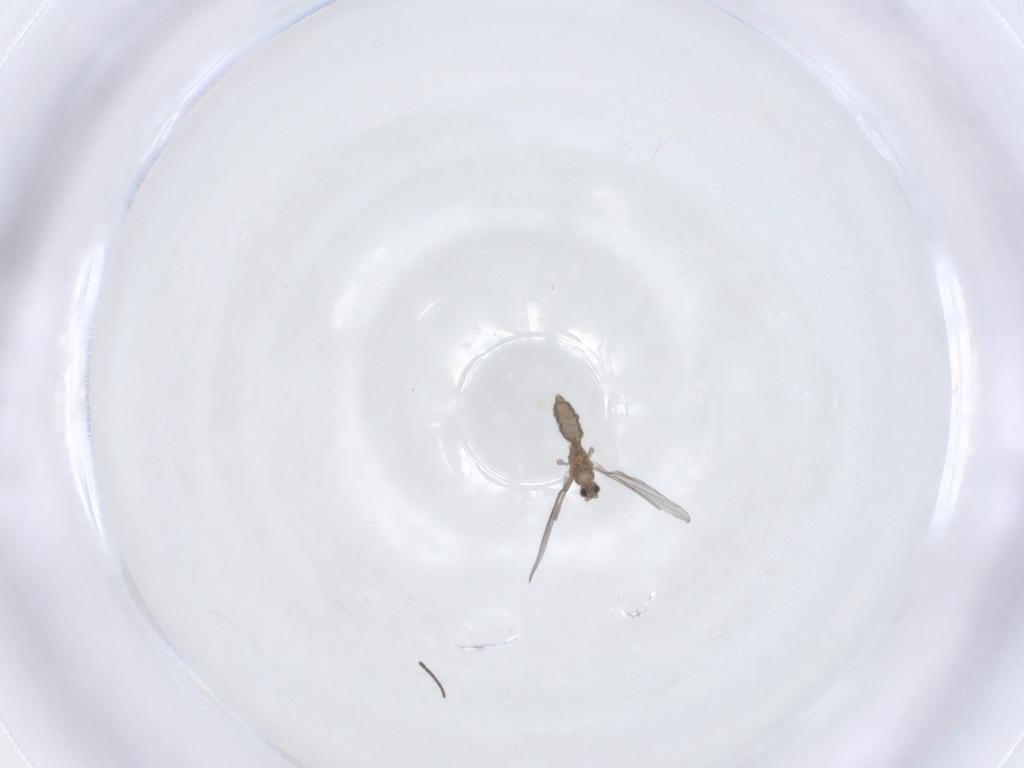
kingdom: Animalia
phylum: Arthropoda
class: Insecta
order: Diptera
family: Cecidomyiidae
